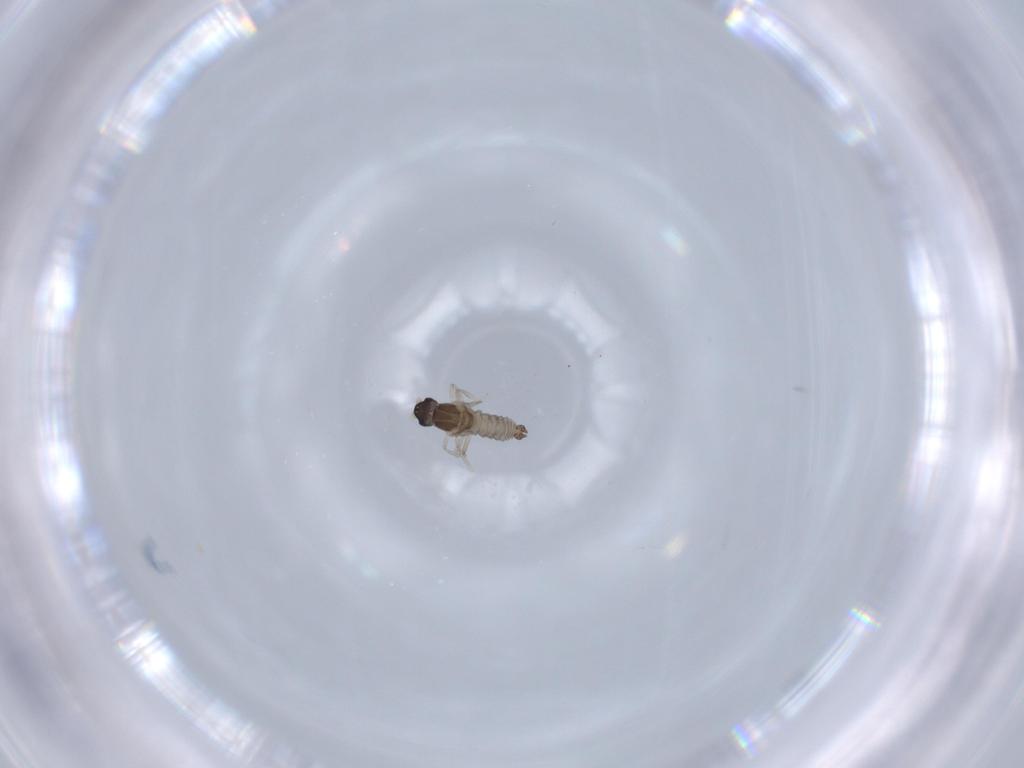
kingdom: Animalia
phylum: Arthropoda
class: Insecta
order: Diptera
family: Cecidomyiidae
